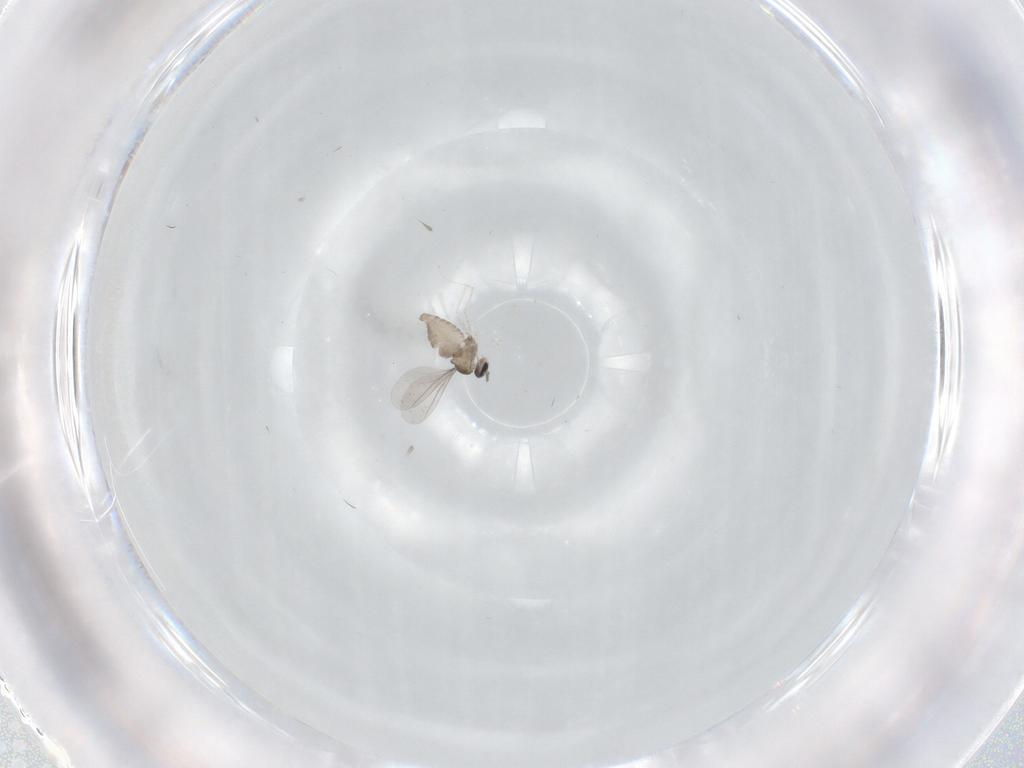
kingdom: Animalia
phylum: Arthropoda
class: Insecta
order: Diptera
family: Cecidomyiidae
